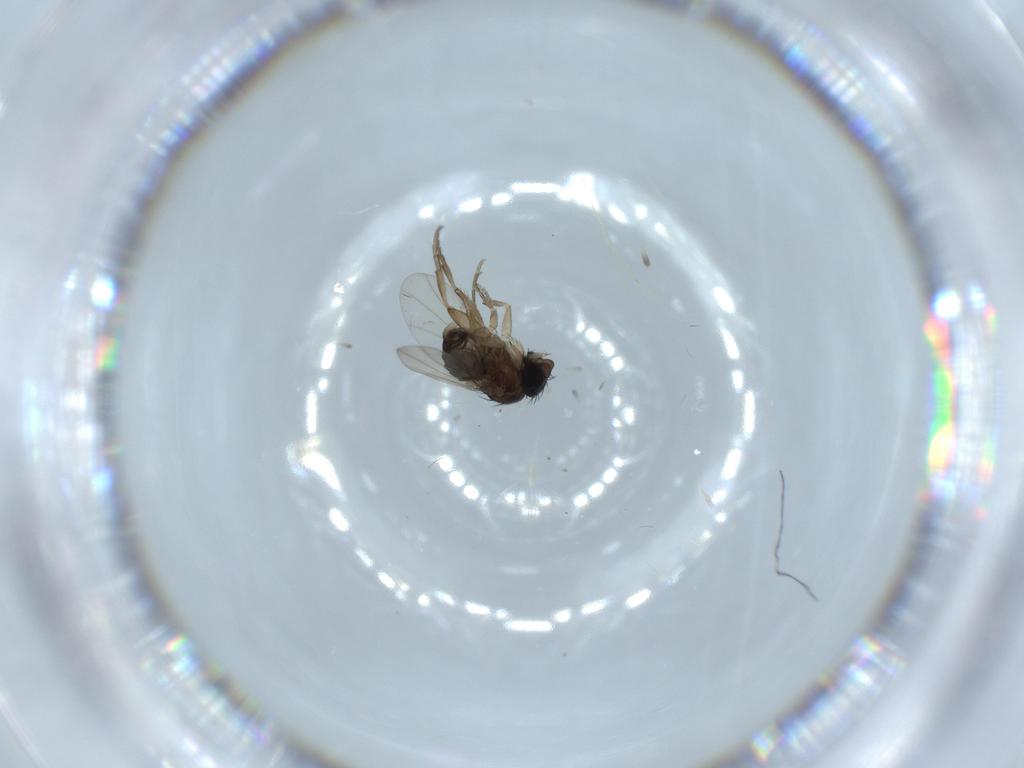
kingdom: Animalia
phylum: Arthropoda
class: Insecta
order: Diptera
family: Phoridae
